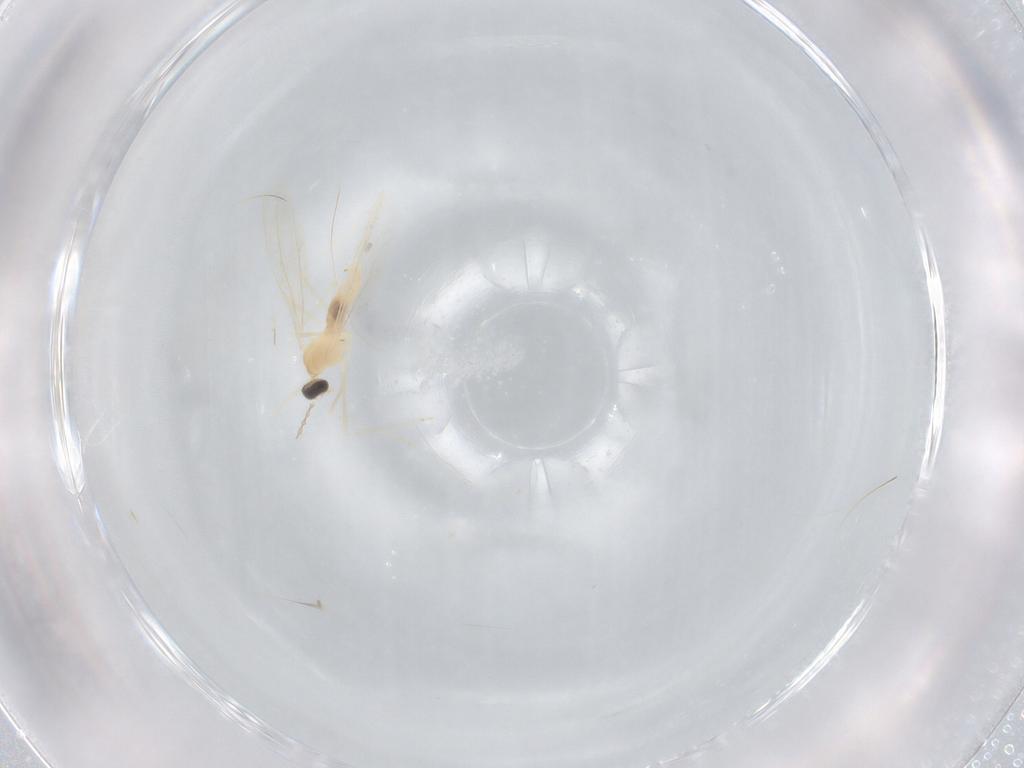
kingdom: Animalia
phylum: Arthropoda
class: Insecta
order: Diptera
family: Cecidomyiidae
